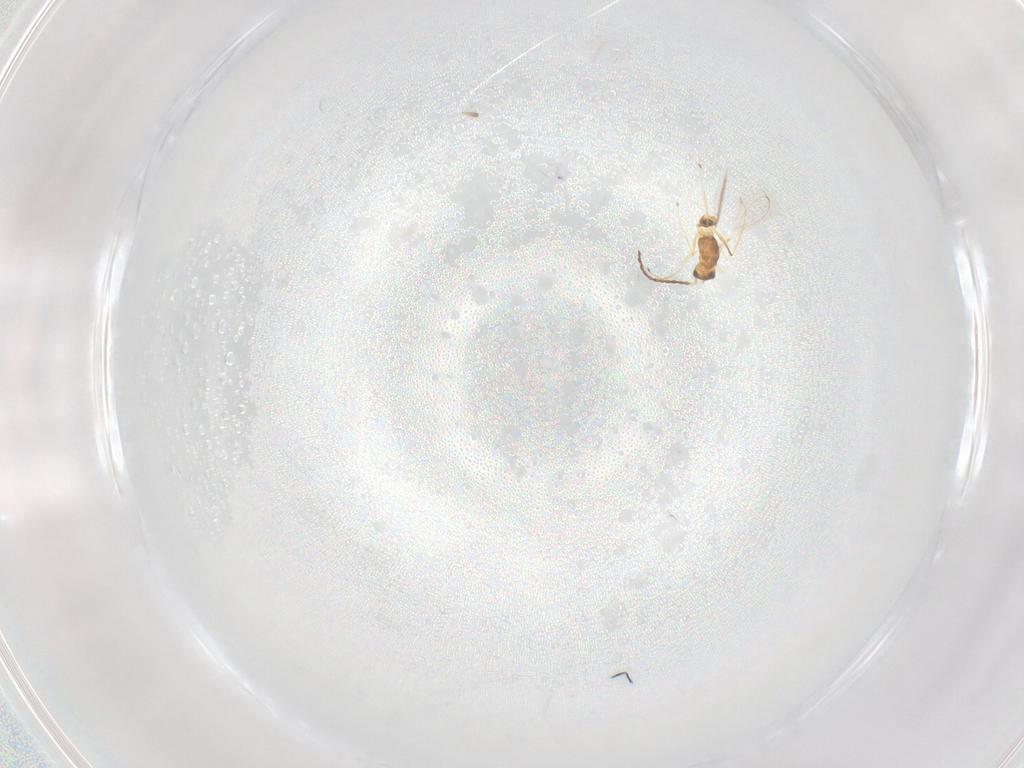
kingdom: Animalia
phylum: Arthropoda
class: Insecta
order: Hymenoptera
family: Mymaridae
